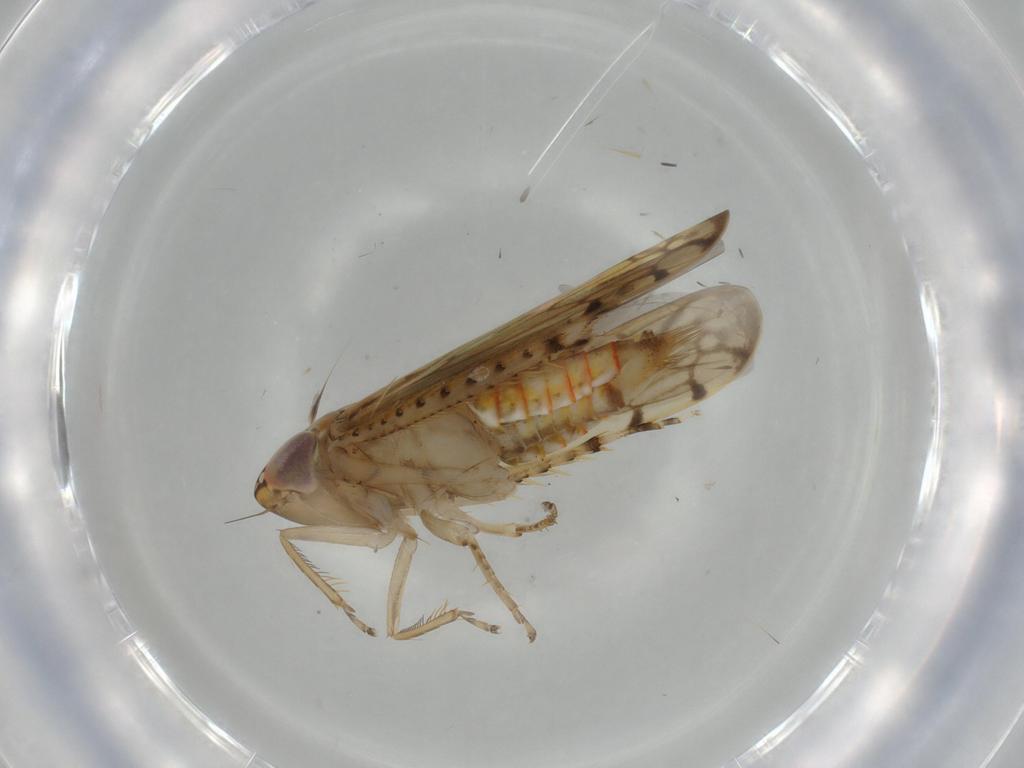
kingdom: Animalia
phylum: Arthropoda
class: Insecta
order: Hemiptera
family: Cicadellidae
